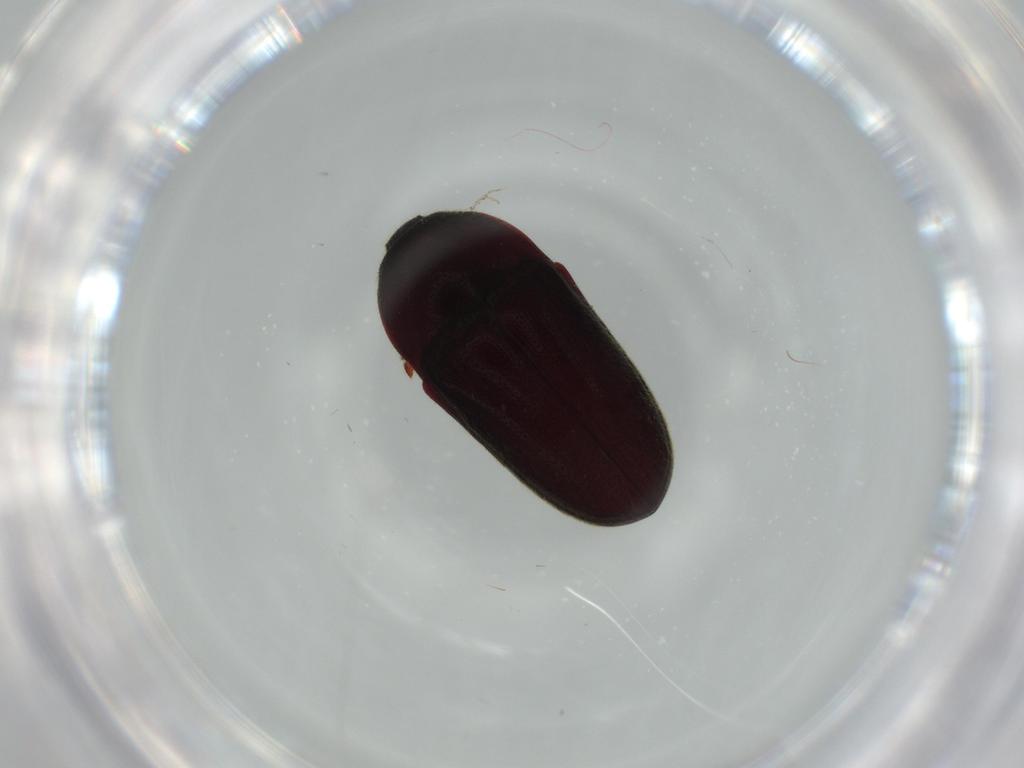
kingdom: Animalia
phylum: Arthropoda
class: Insecta
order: Coleoptera
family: Throscidae
